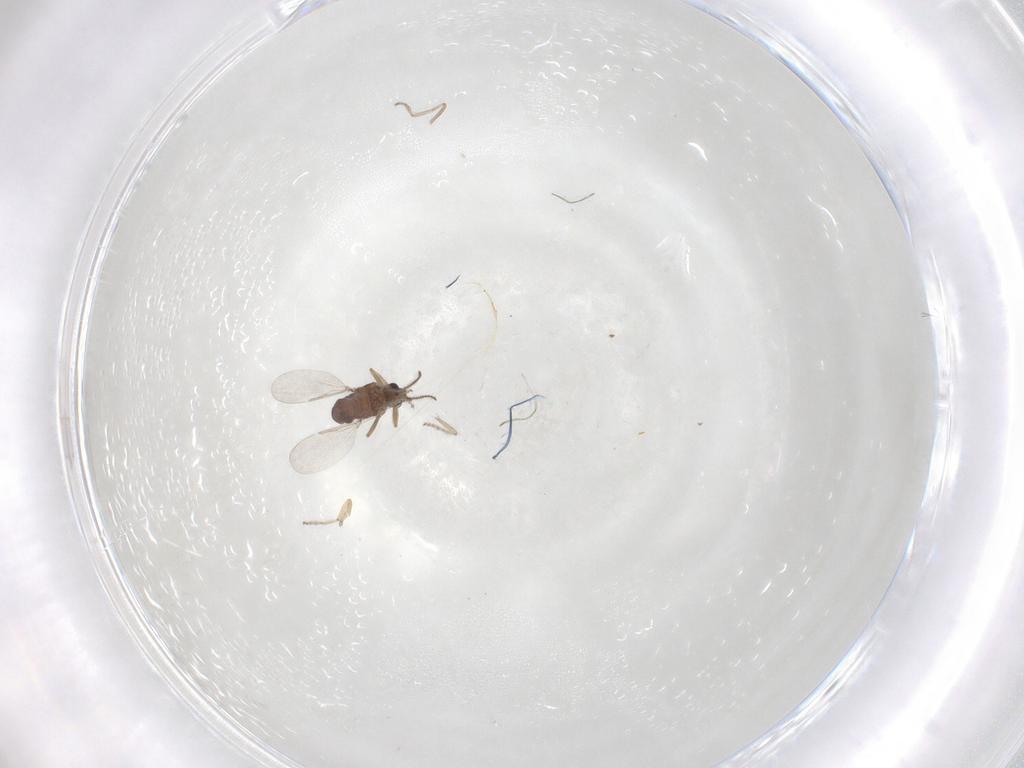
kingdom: Animalia
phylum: Arthropoda
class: Insecta
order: Diptera
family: Ceratopogonidae
